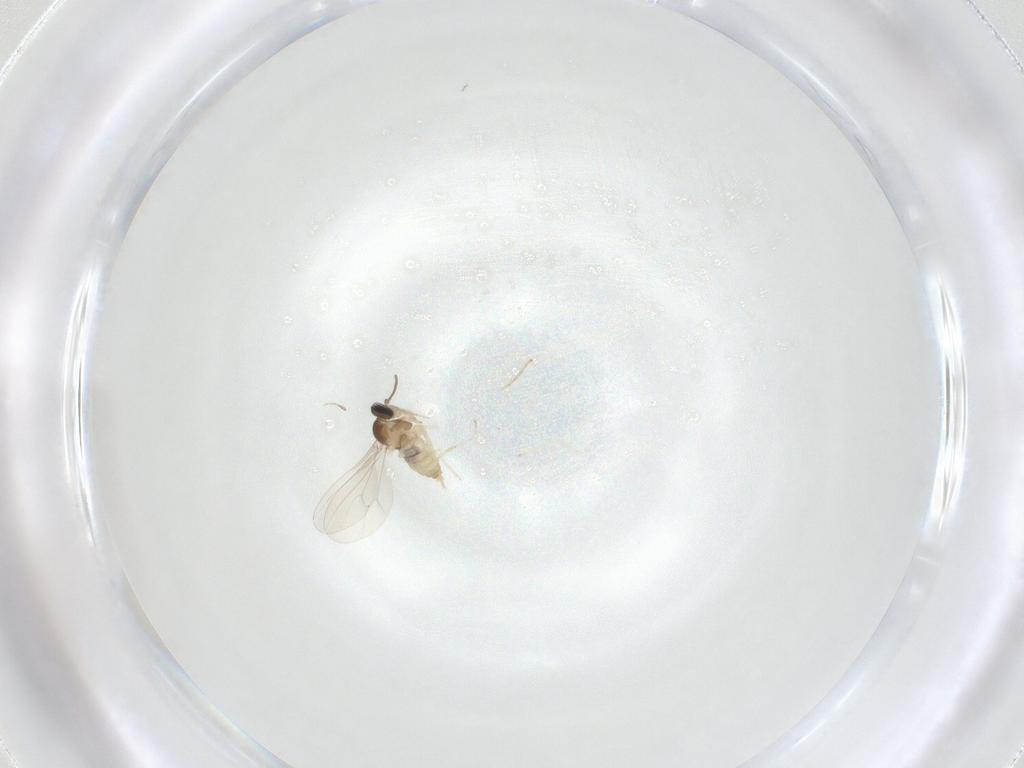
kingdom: Animalia
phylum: Arthropoda
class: Insecta
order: Diptera
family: Cecidomyiidae
